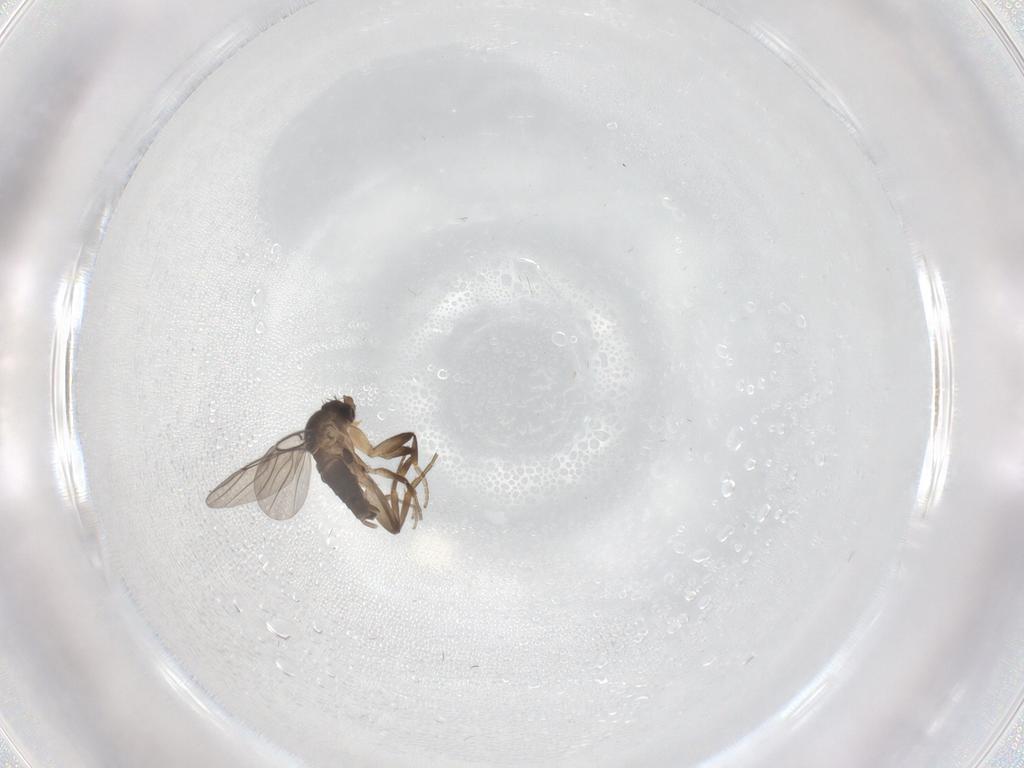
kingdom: Animalia
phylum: Arthropoda
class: Insecta
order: Diptera
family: Phoridae
